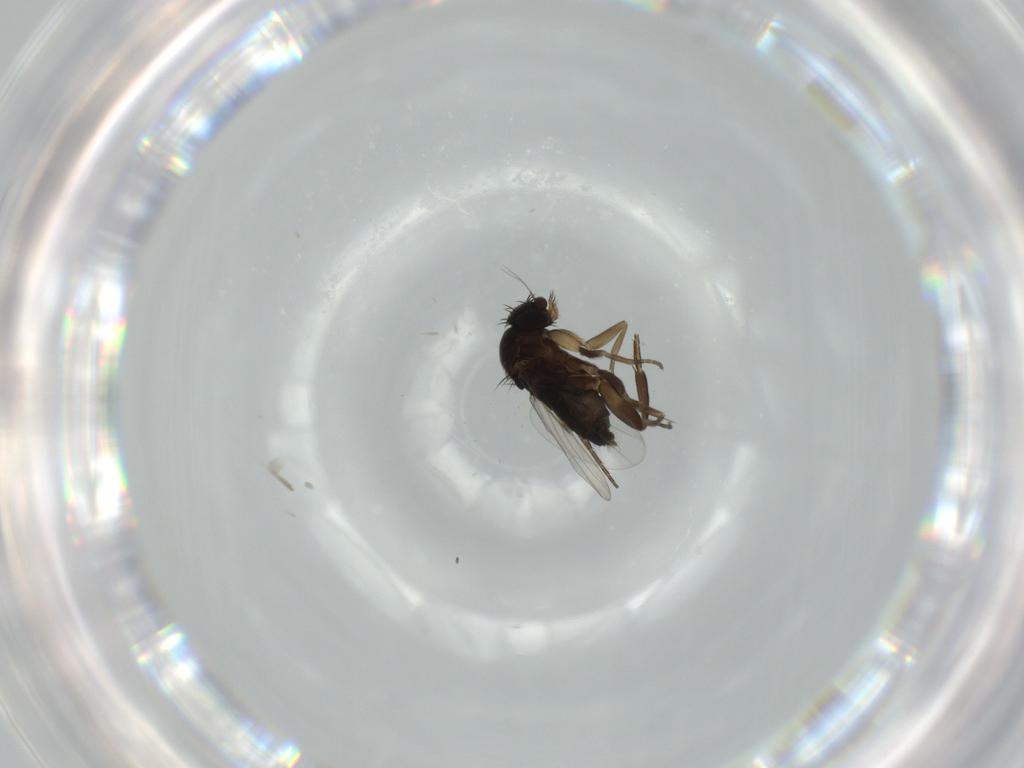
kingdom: Animalia
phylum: Arthropoda
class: Insecta
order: Diptera
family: Phoridae
